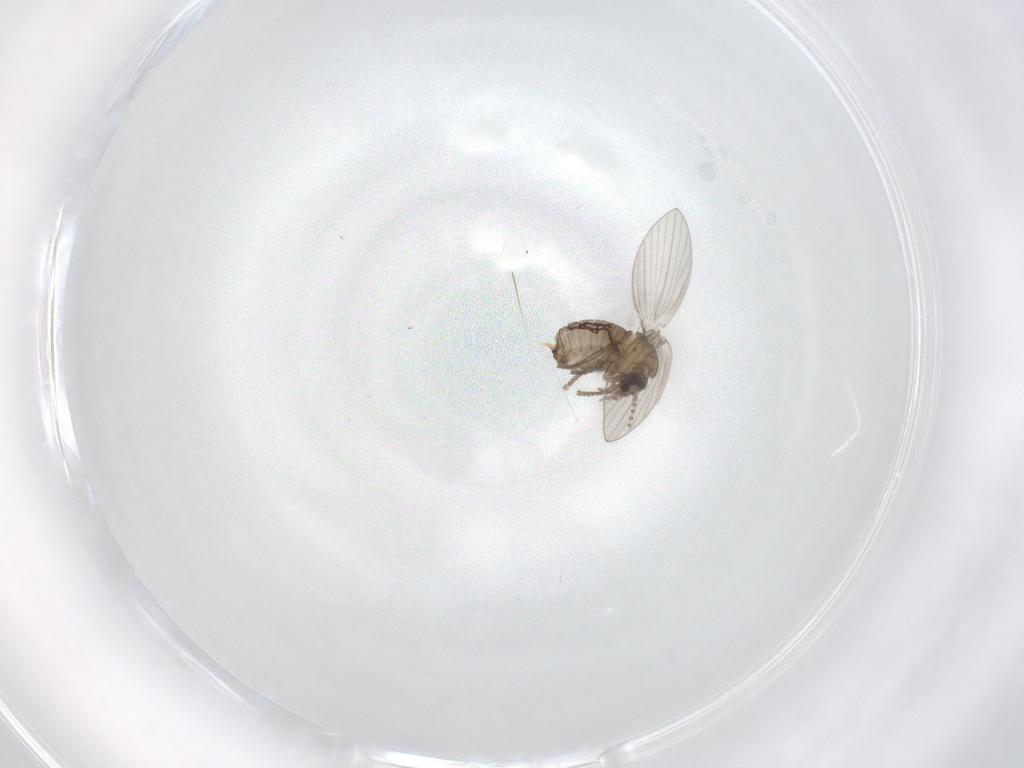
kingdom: Animalia
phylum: Arthropoda
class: Insecta
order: Diptera
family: Psychodidae
